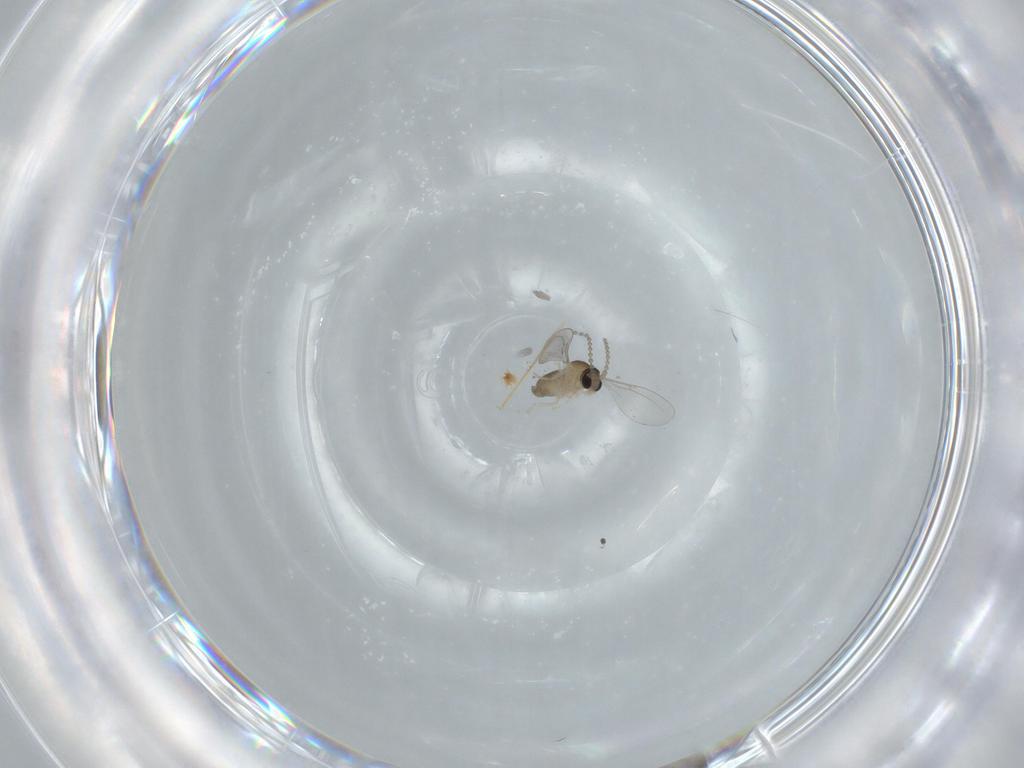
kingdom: Animalia
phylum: Arthropoda
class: Insecta
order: Diptera
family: Cecidomyiidae
